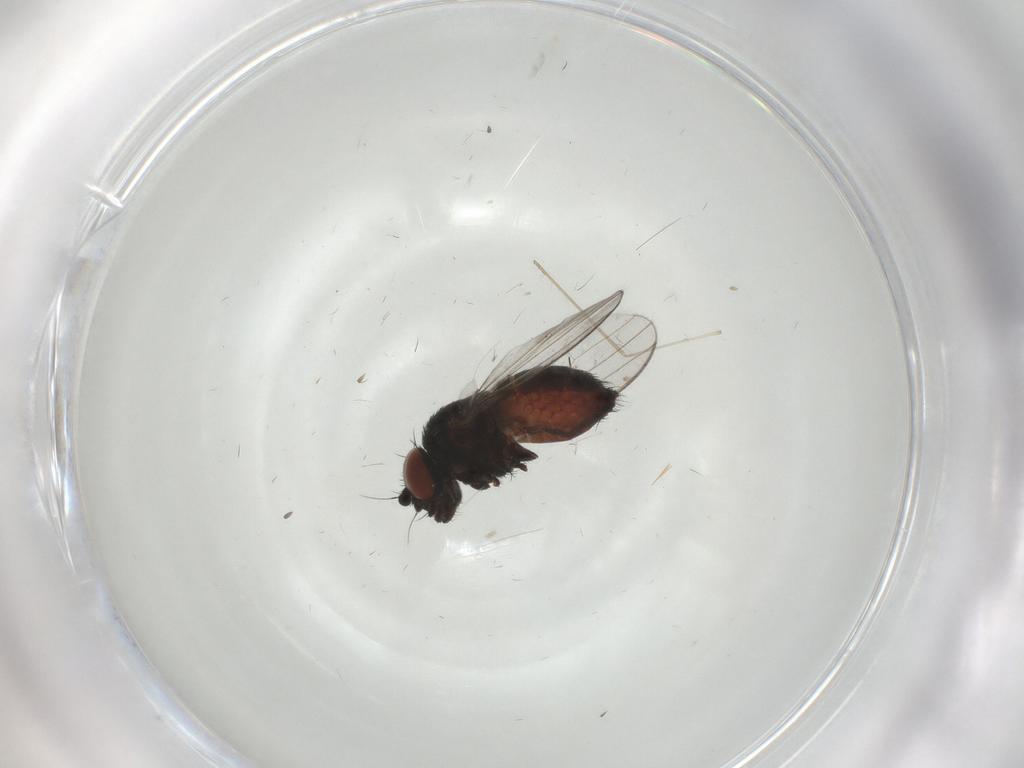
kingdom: Animalia
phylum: Arthropoda
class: Insecta
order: Diptera
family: Milichiidae
